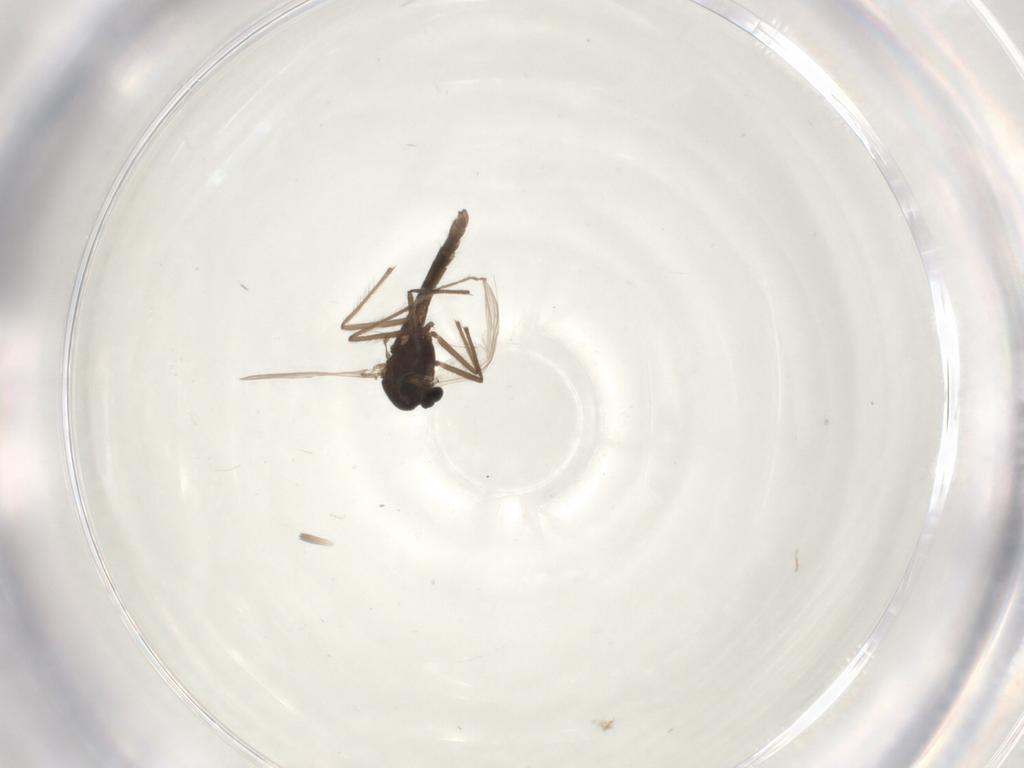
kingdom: Animalia
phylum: Arthropoda
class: Insecta
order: Diptera
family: Chironomidae
